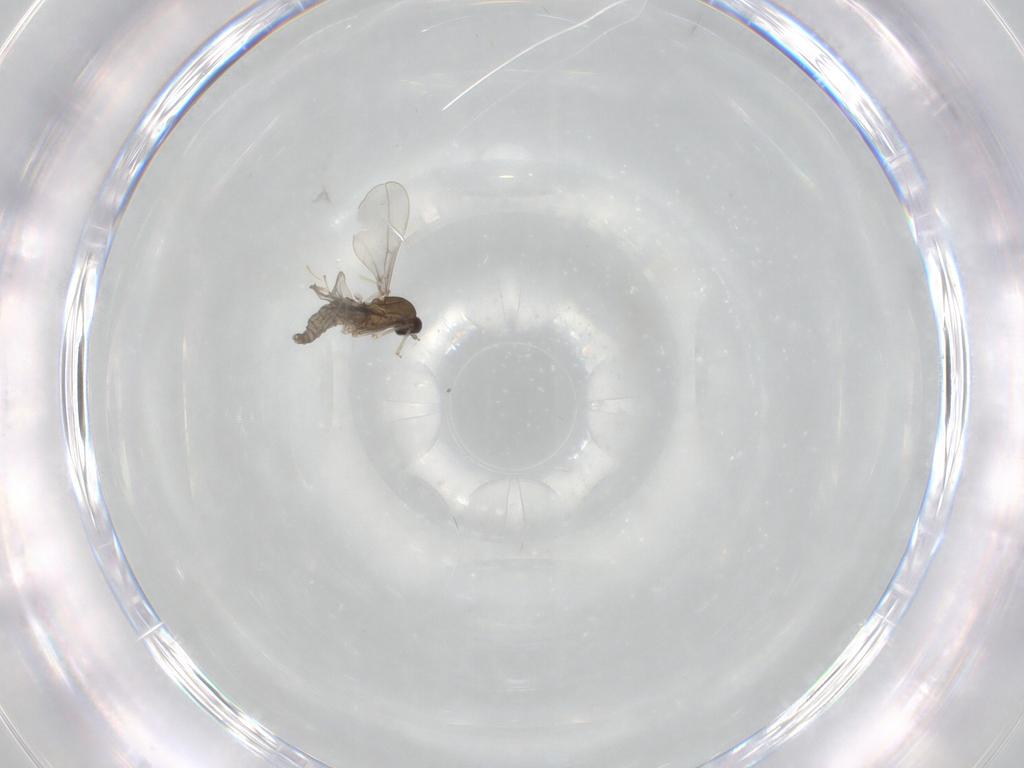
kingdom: Animalia
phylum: Arthropoda
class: Insecta
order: Diptera
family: Cecidomyiidae
